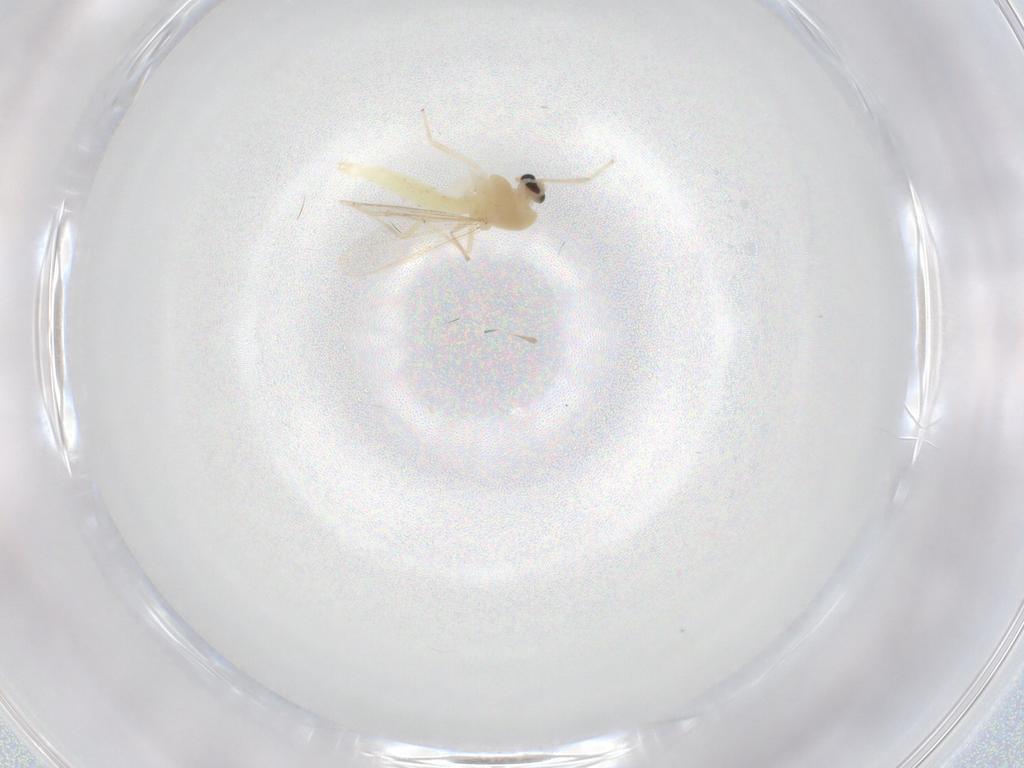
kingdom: Animalia
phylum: Arthropoda
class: Insecta
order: Diptera
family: Chironomidae
